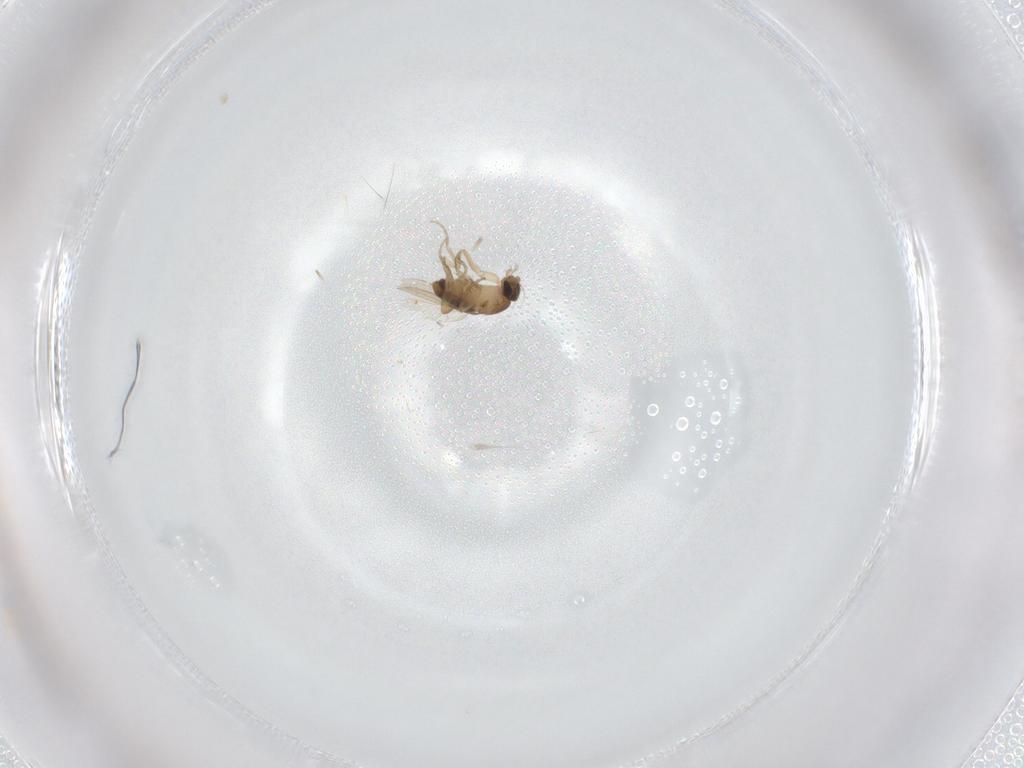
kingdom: Animalia
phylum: Arthropoda
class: Insecta
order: Diptera
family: Phoridae
